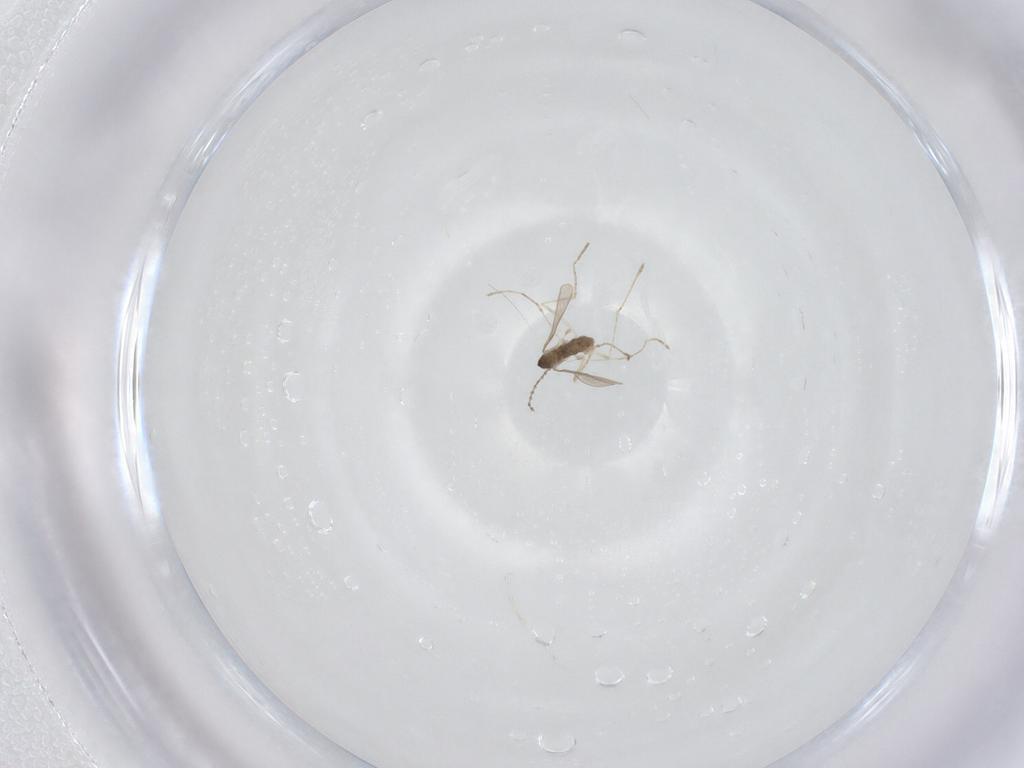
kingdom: Animalia
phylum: Arthropoda
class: Insecta
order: Diptera
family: Cecidomyiidae
